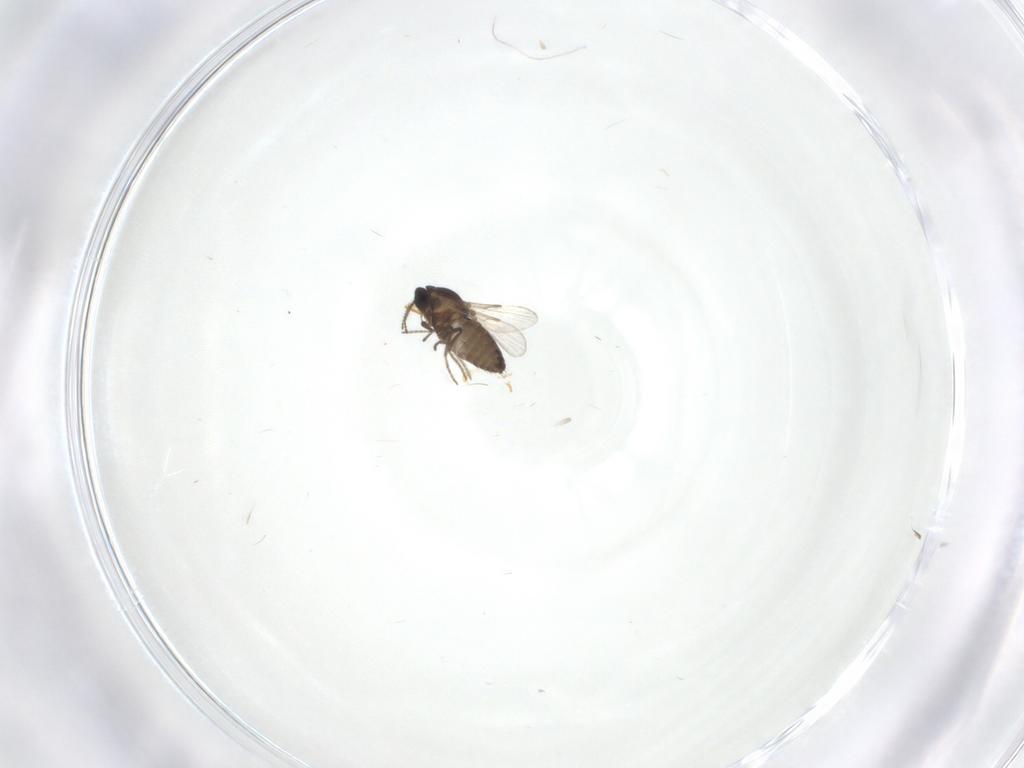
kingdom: Animalia
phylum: Arthropoda
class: Insecta
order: Diptera
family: Ceratopogonidae
